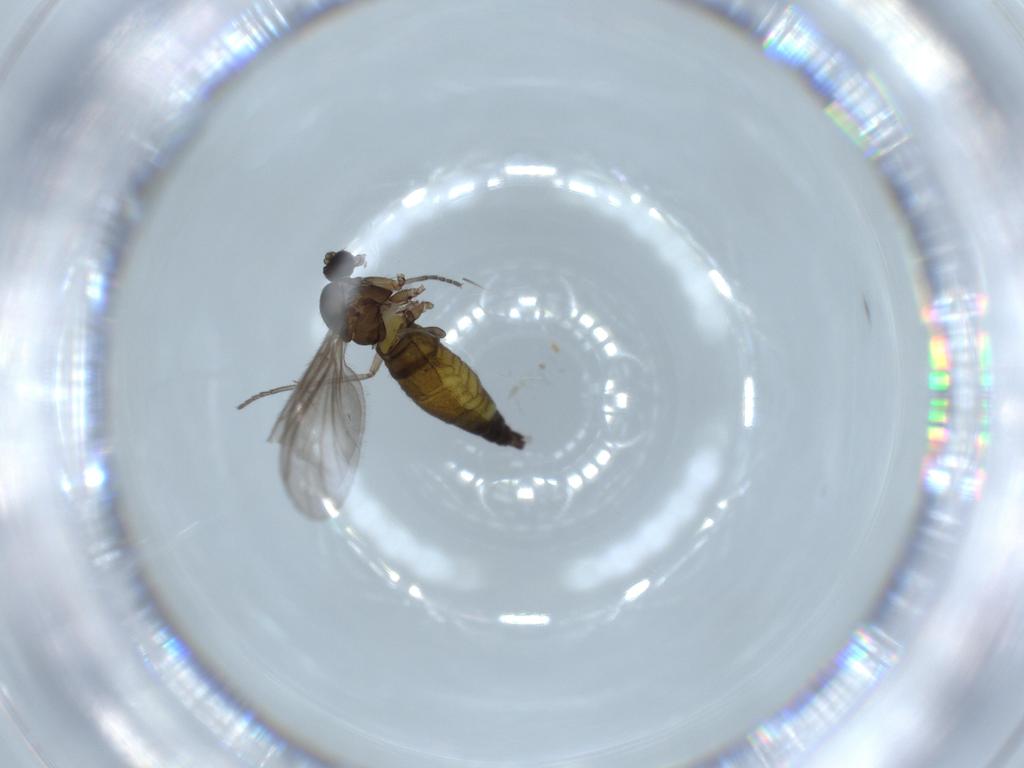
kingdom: Animalia
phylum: Arthropoda
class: Insecta
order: Diptera
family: Sciaridae
